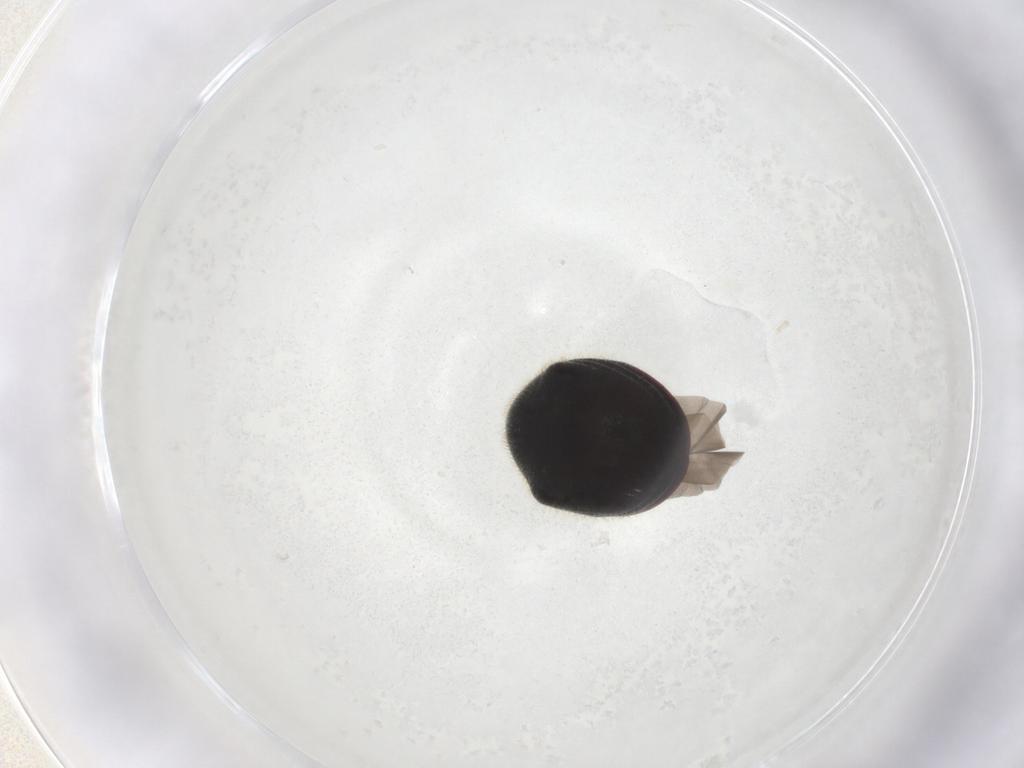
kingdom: Animalia
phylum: Arthropoda
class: Insecta
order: Coleoptera
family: Ptinidae
